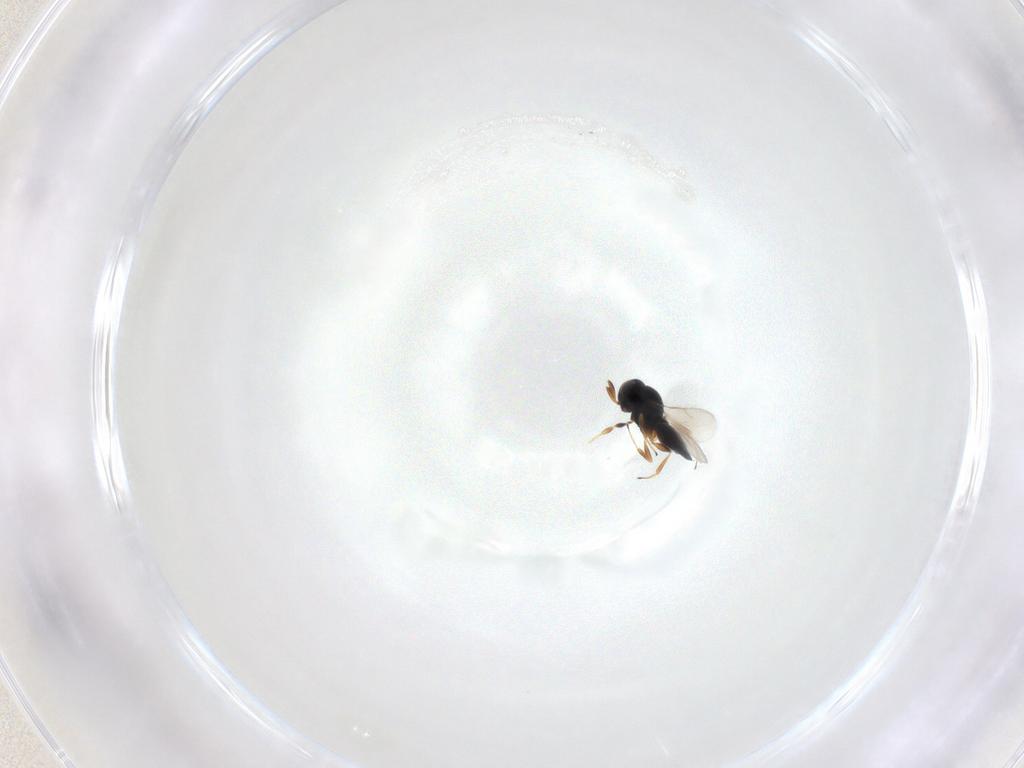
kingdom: Animalia
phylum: Arthropoda
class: Insecta
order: Hymenoptera
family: Scelionidae
